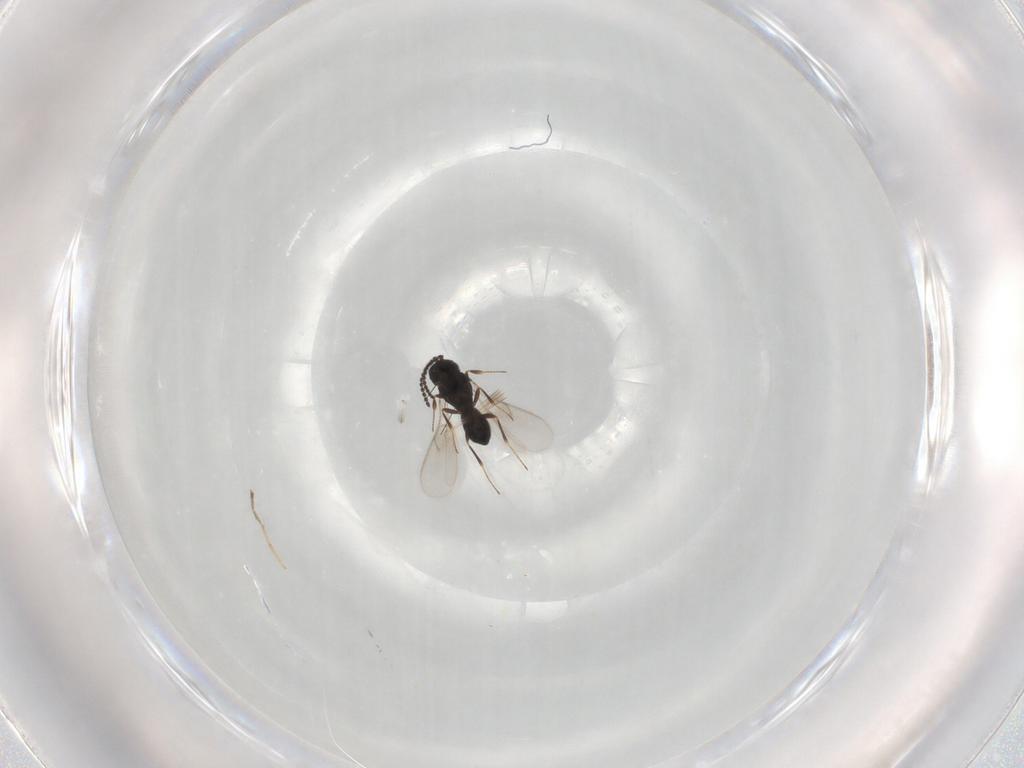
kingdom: Animalia
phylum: Arthropoda
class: Insecta
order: Hymenoptera
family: Scelionidae
